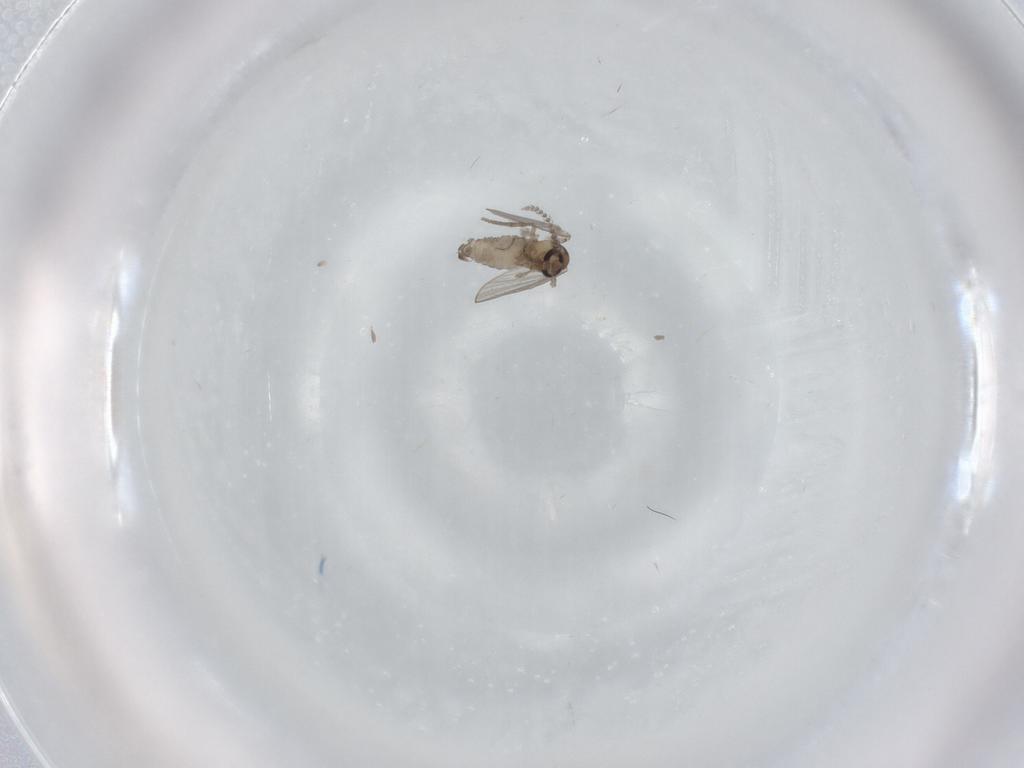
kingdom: Animalia
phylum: Arthropoda
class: Insecta
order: Diptera
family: Psychodidae
